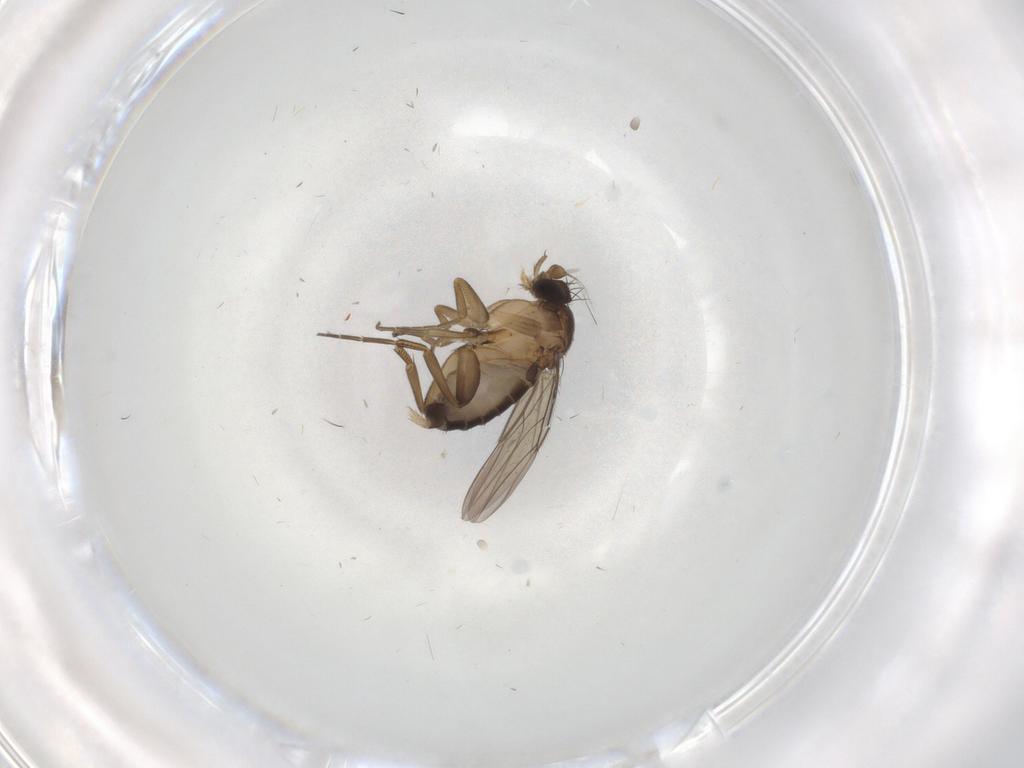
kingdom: Animalia
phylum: Arthropoda
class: Insecta
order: Diptera
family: Phoridae
